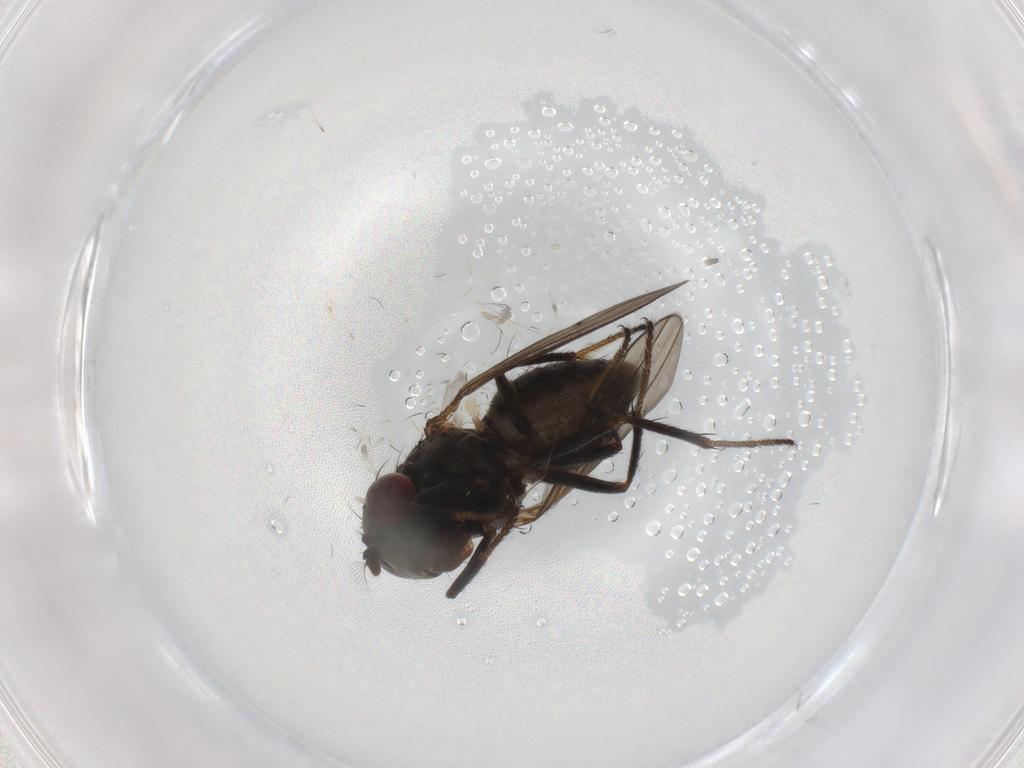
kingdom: Animalia
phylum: Arthropoda
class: Insecta
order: Diptera
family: Ephydridae
